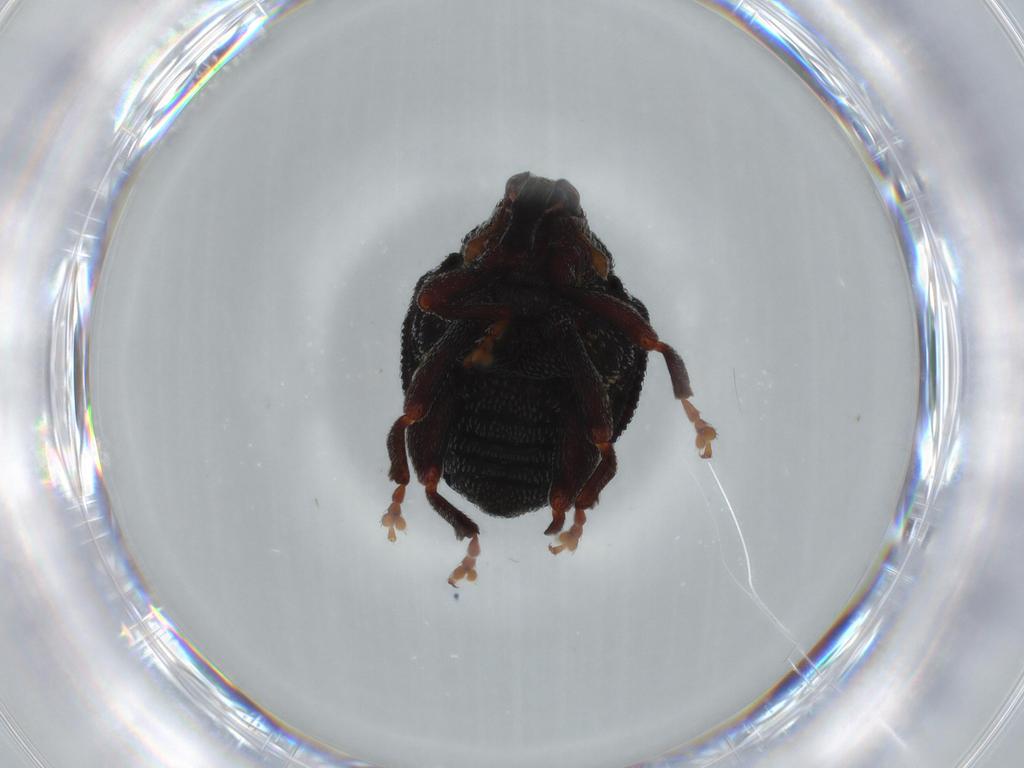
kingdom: Animalia
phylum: Arthropoda
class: Insecta
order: Coleoptera
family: Curculionidae
